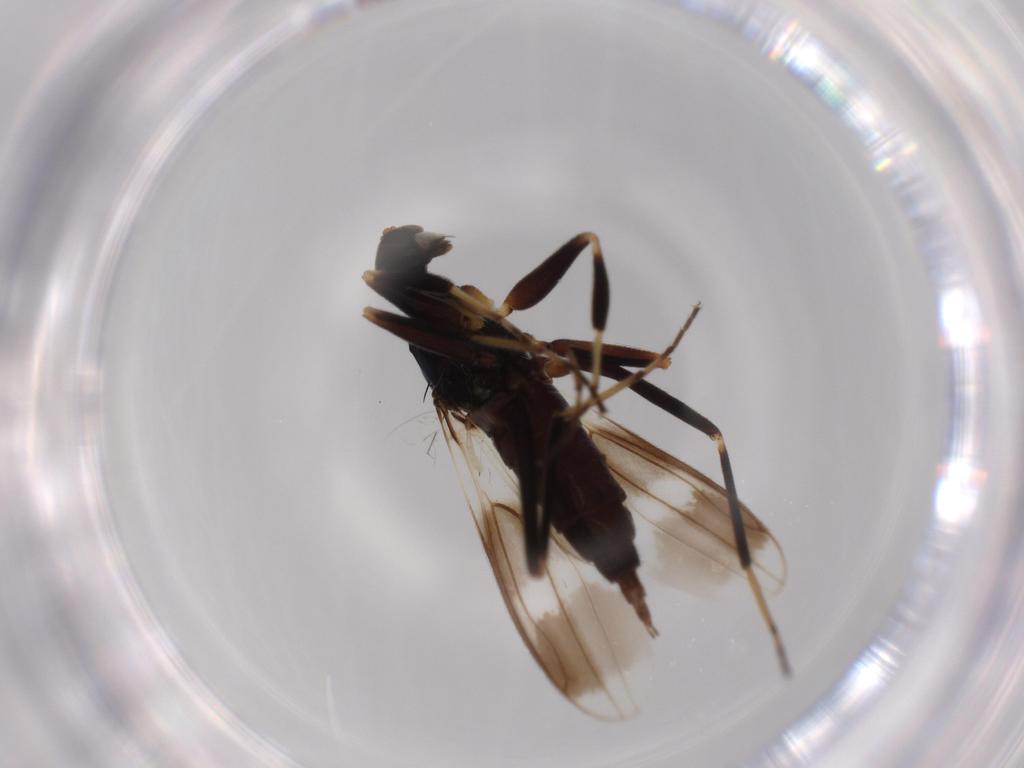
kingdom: Animalia
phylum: Arthropoda
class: Insecta
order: Diptera
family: Hybotidae
